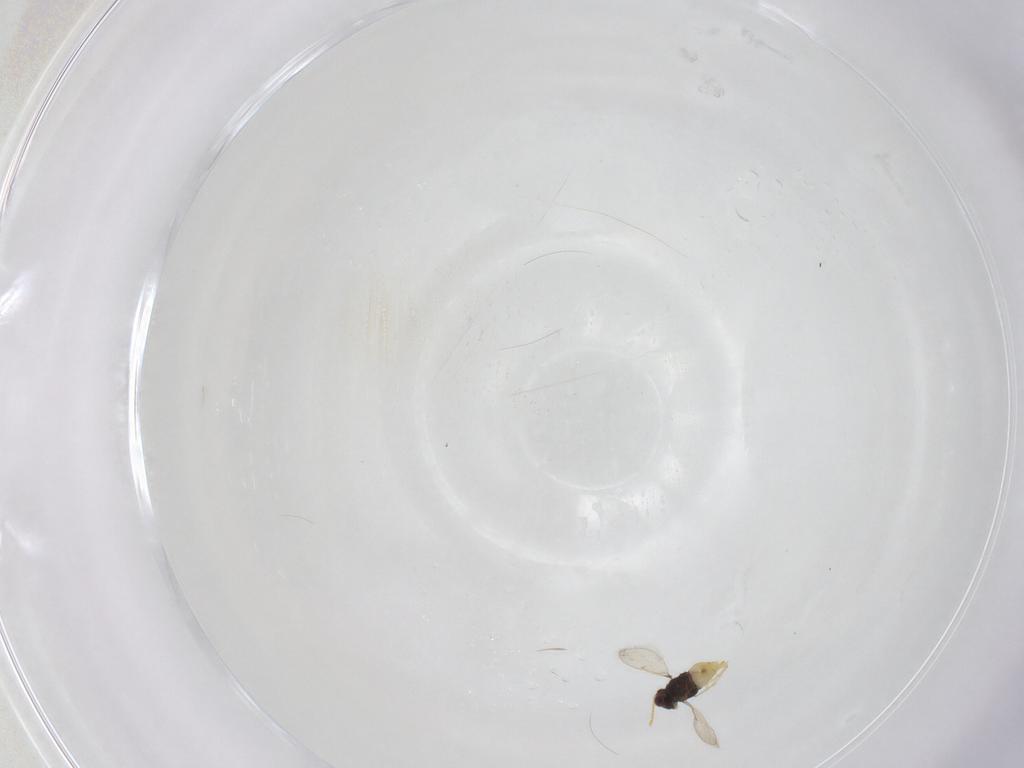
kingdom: Animalia
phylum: Arthropoda
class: Insecta
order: Hymenoptera
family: Aphelinidae
